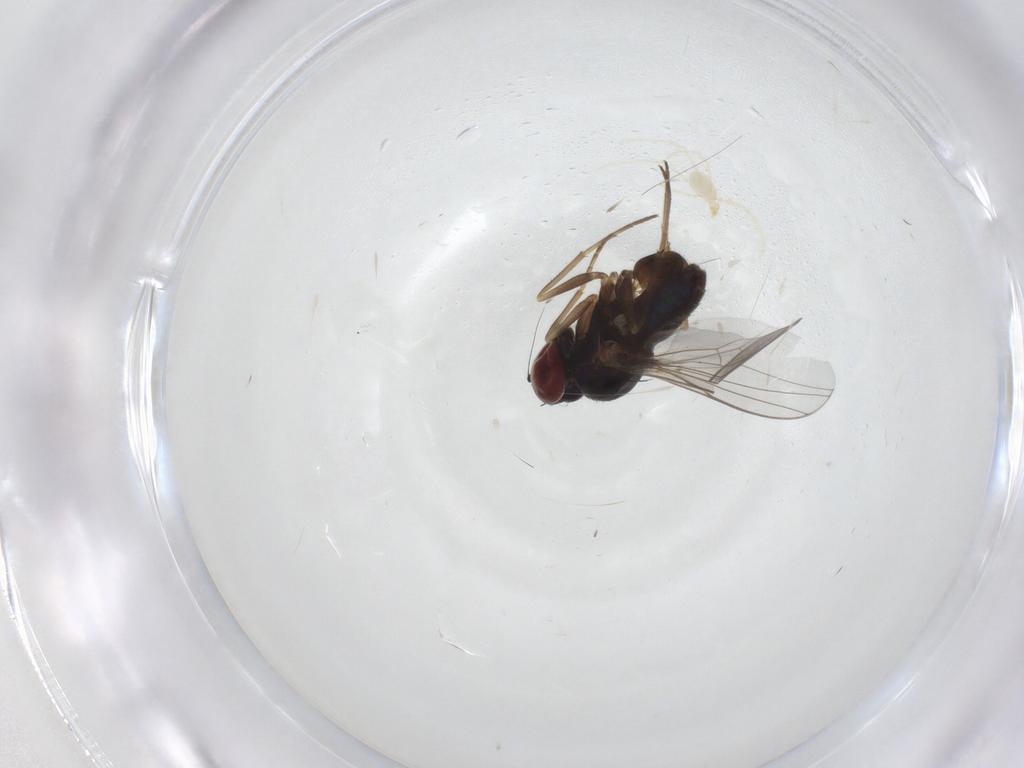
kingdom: Animalia
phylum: Arthropoda
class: Insecta
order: Diptera
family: Dolichopodidae
